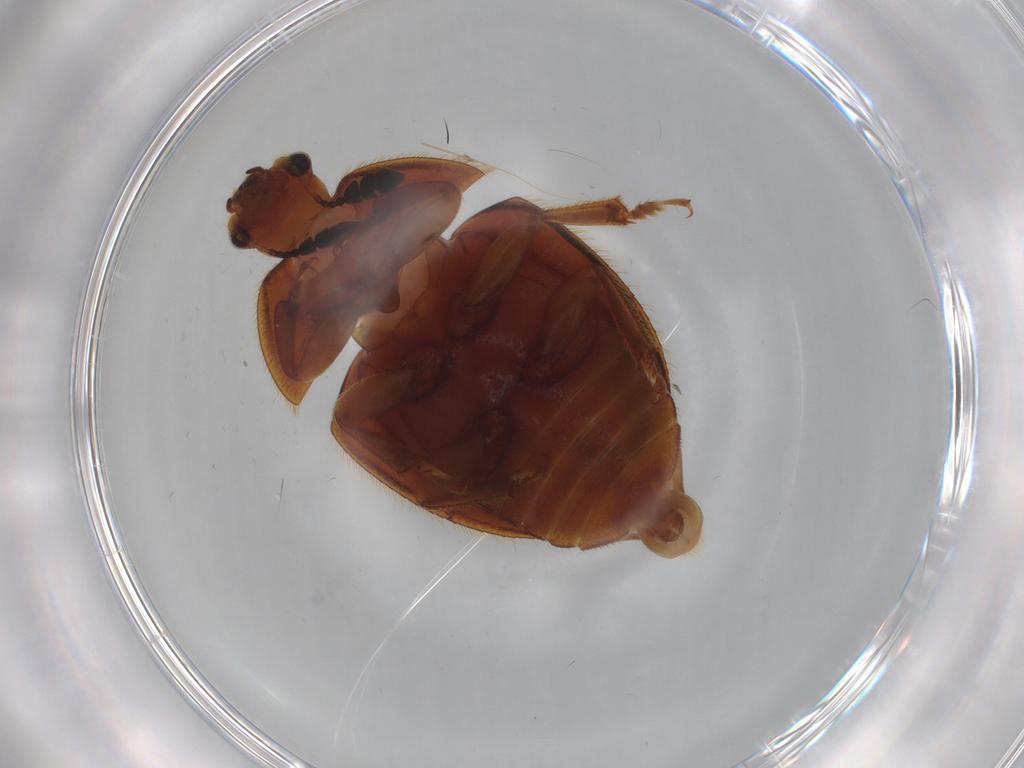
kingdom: Animalia
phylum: Arthropoda
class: Insecta
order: Coleoptera
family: Nitidulidae
